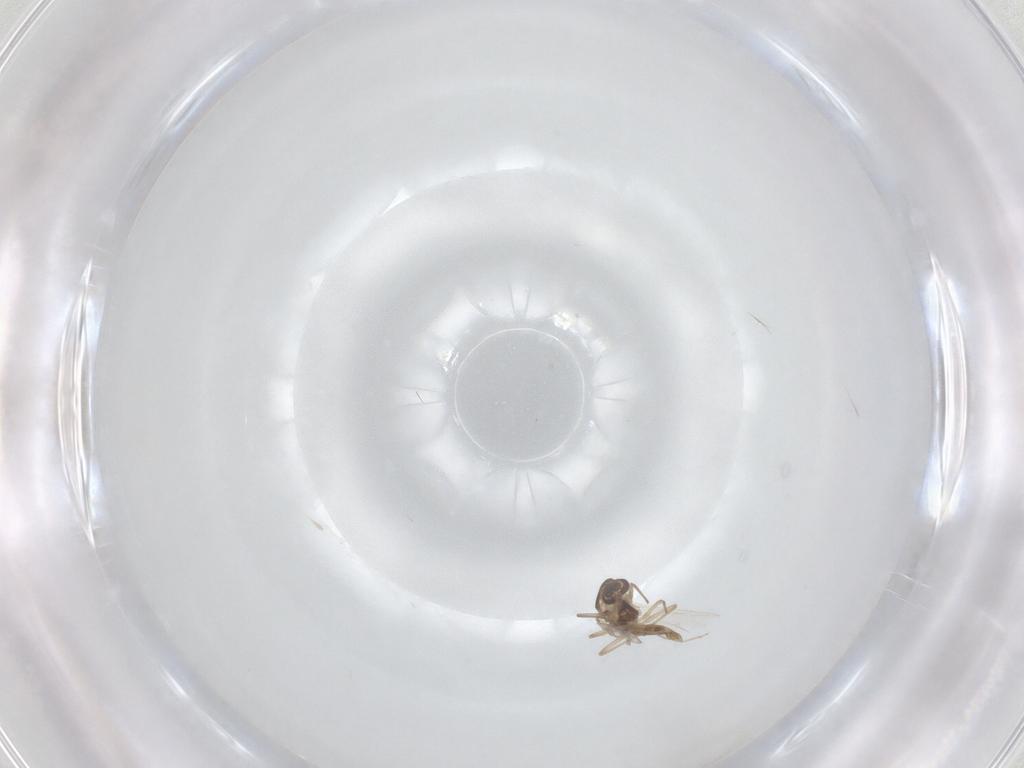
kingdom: Animalia
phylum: Arthropoda
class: Insecta
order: Diptera
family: Chironomidae
